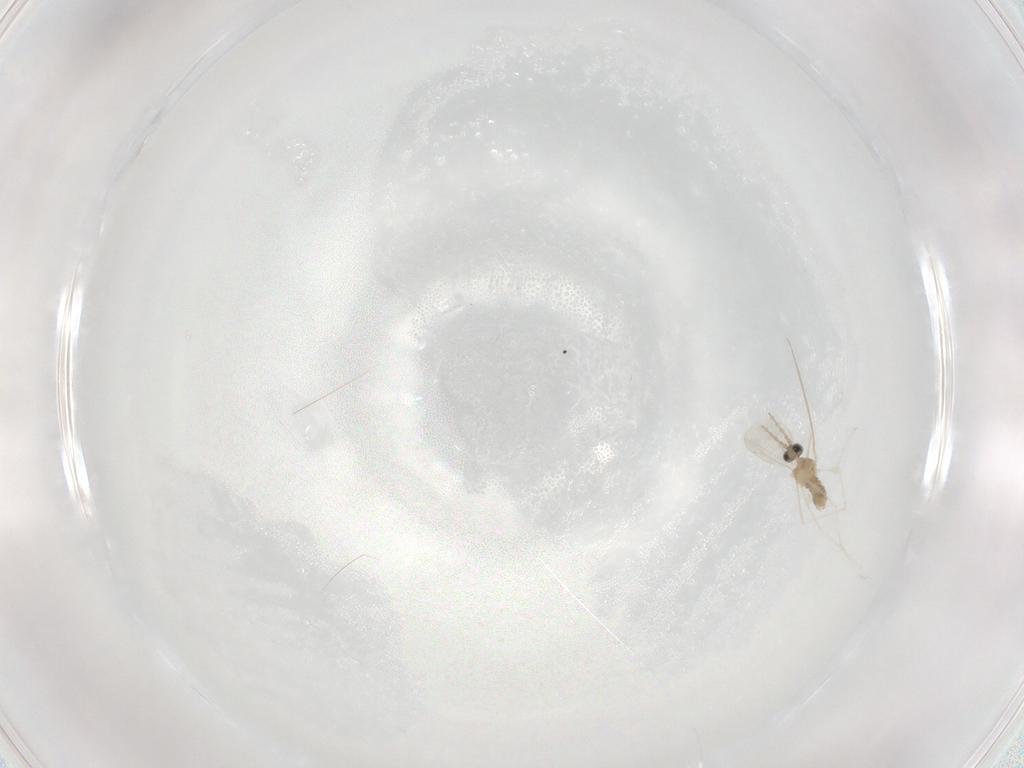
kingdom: Animalia
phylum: Arthropoda
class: Insecta
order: Diptera
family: Cecidomyiidae
